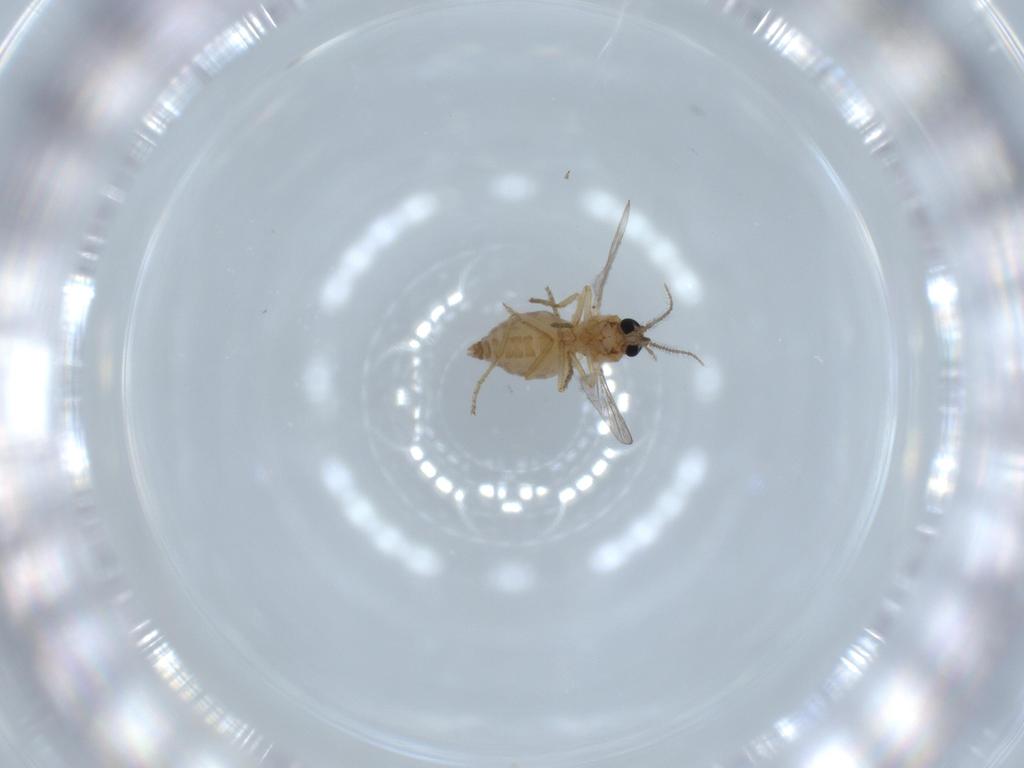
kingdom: Animalia
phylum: Arthropoda
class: Insecta
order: Diptera
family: Ceratopogonidae
